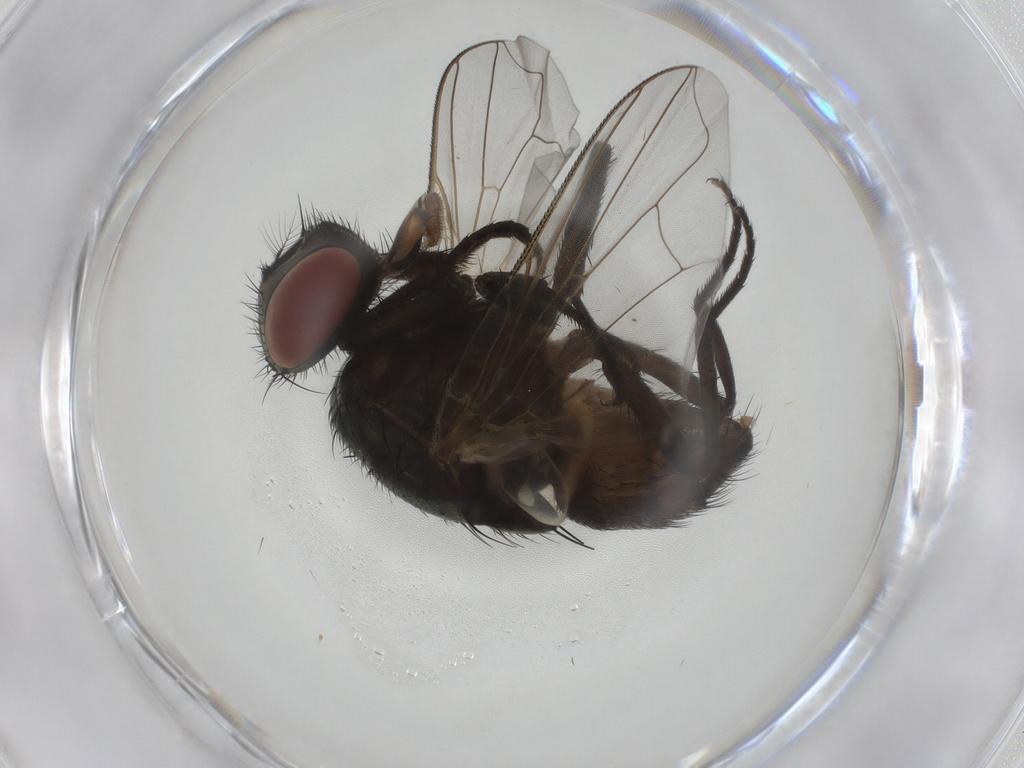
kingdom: Animalia
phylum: Arthropoda
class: Insecta
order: Diptera
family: Muscidae
